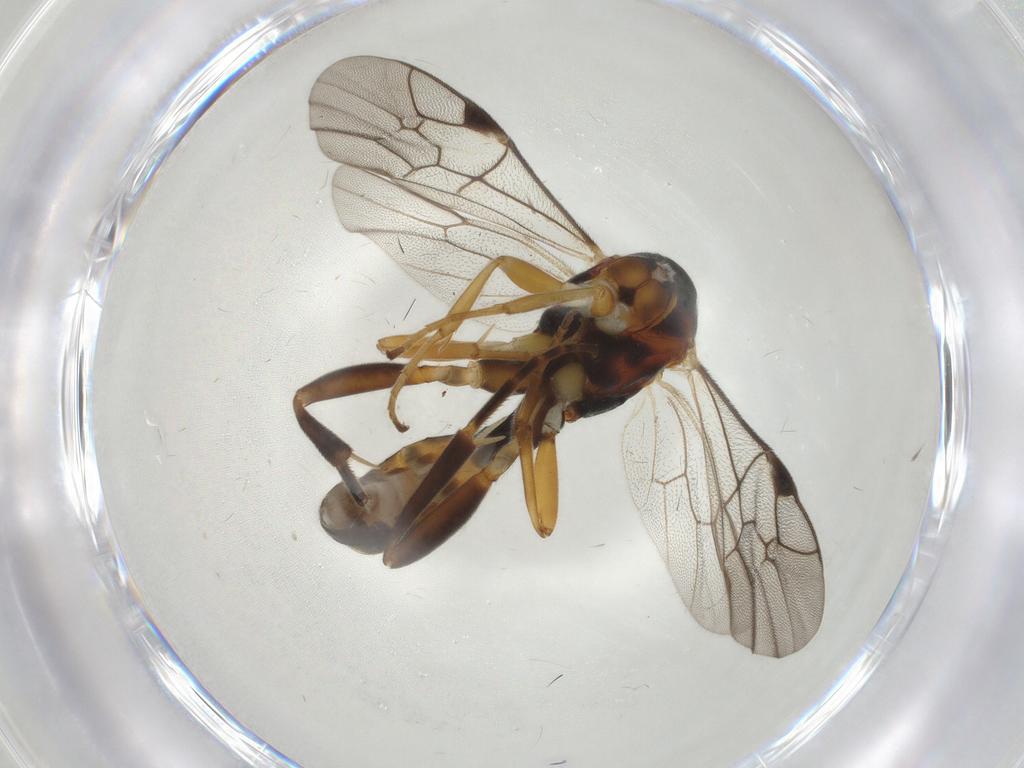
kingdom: Animalia
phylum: Arthropoda
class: Insecta
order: Hymenoptera
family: Ichneumonidae
